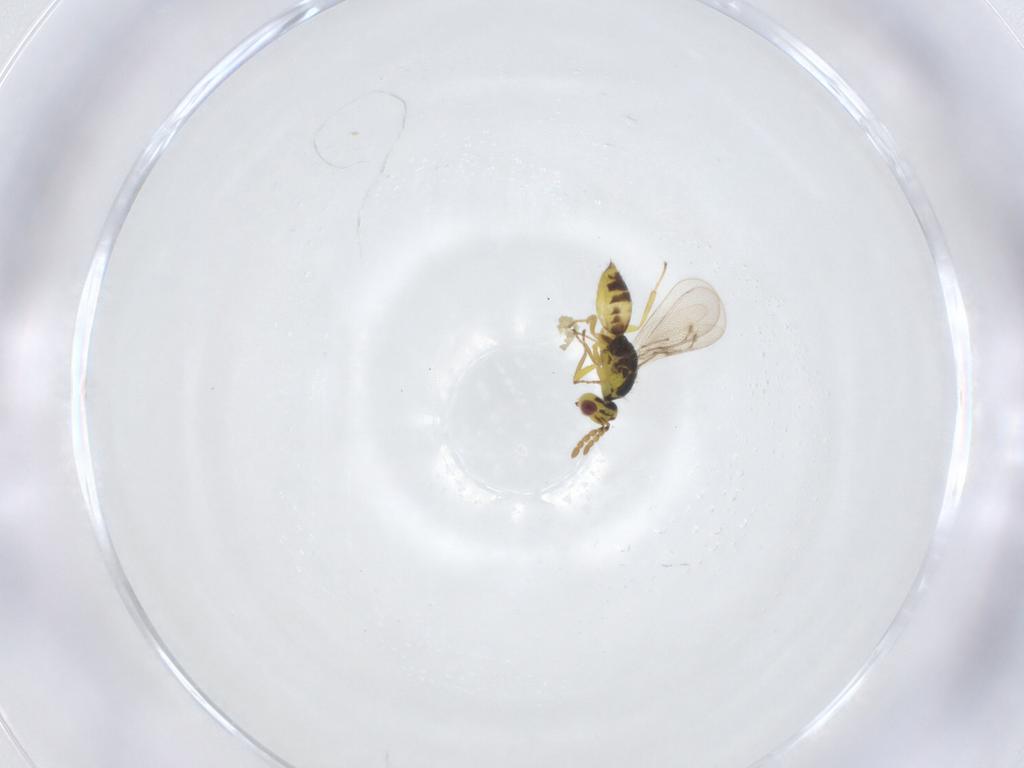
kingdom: Animalia
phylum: Arthropoda
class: Insecta
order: Hymenoptera
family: Eulophidae
